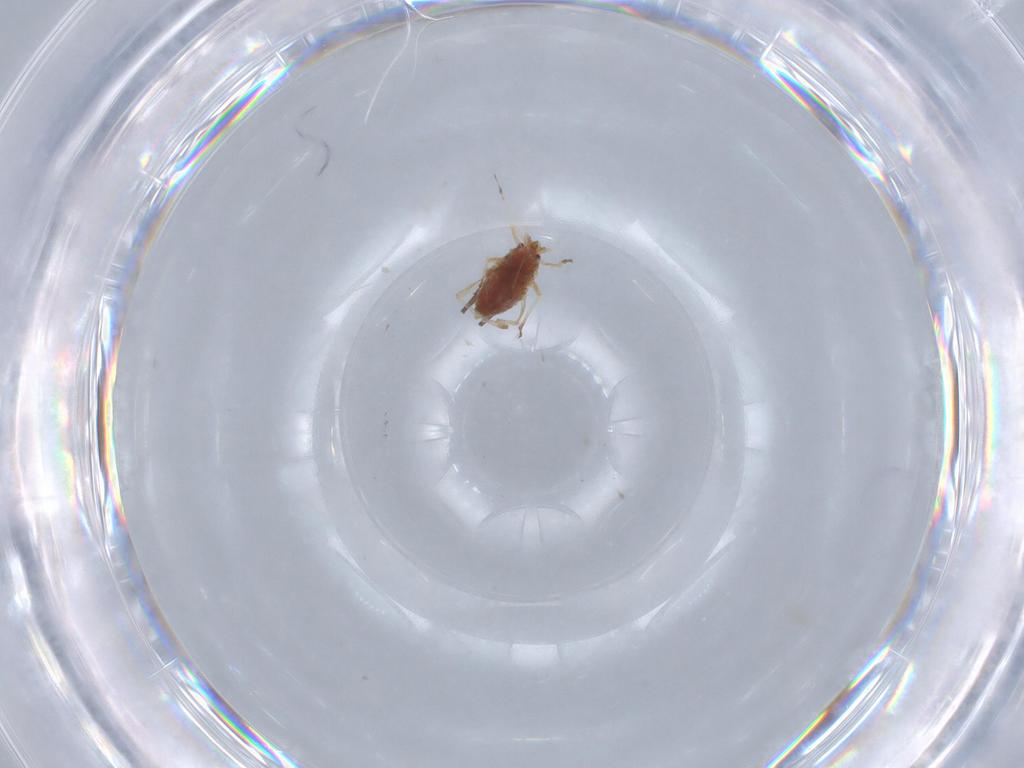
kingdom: Animalia
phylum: Arthropoda
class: Insecta
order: Hemiptera
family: Aphididae
